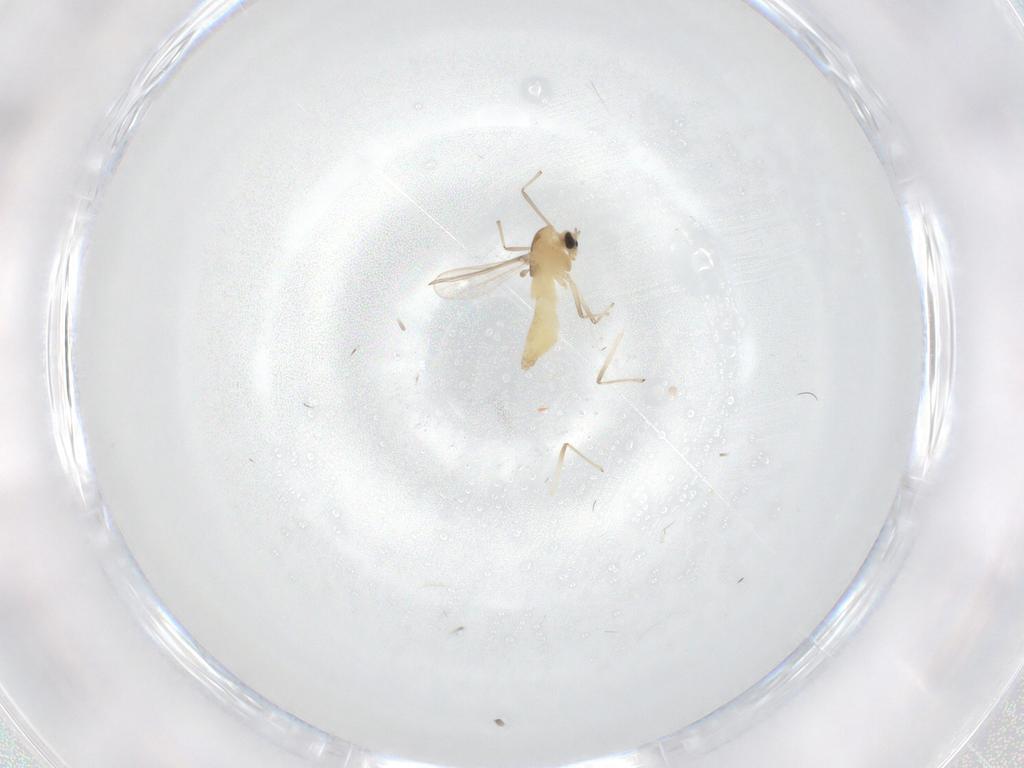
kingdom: Animalia
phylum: Arthropoda
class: Insecta
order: Diptera
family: Chironomidae
